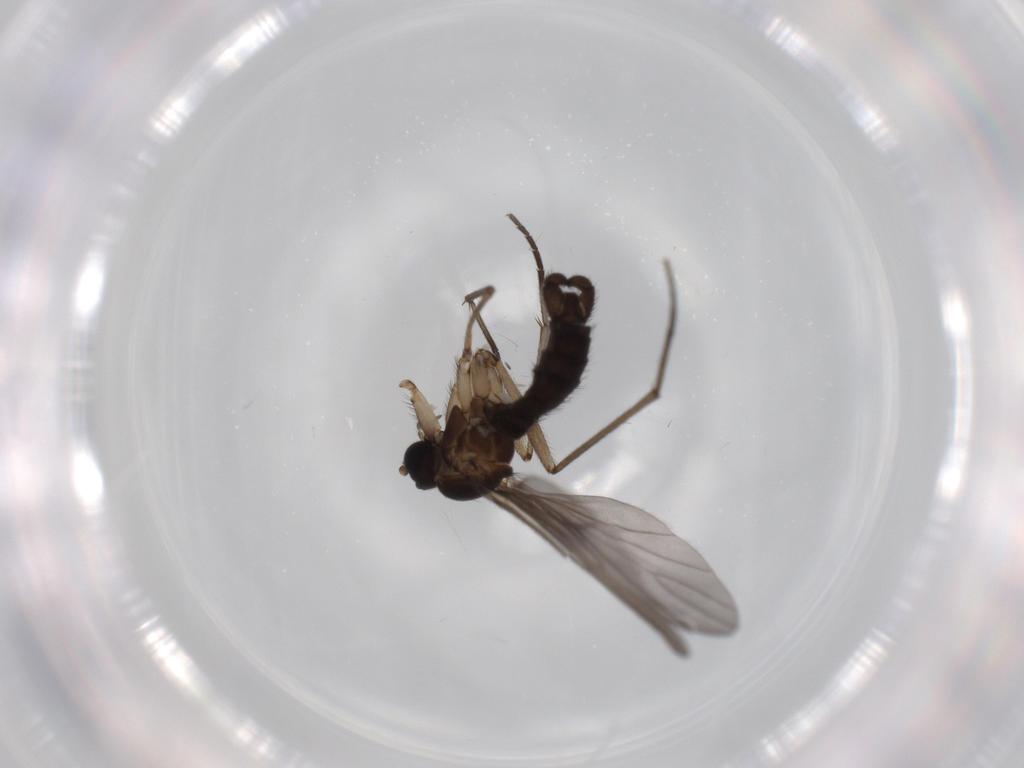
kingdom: Animalia
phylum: Arthropoda
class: Insecta
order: Diptera
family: Sciaridae
